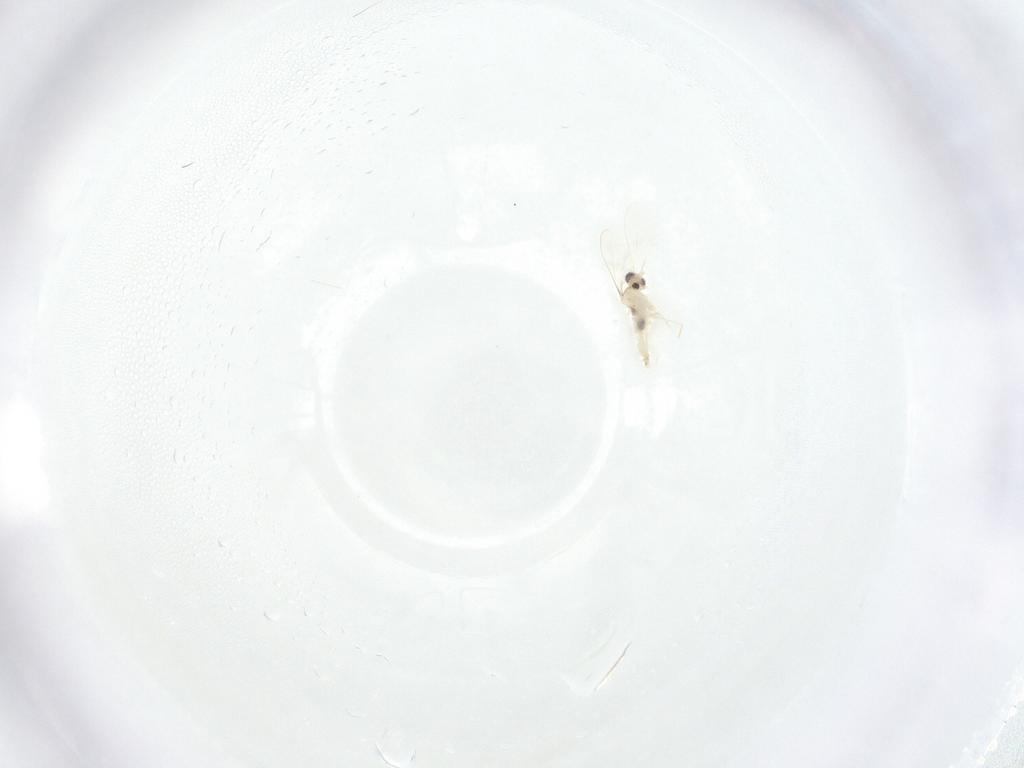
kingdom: Animalia
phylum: Arthropoda
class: Insecta
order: Diptera
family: Cecidomyiidae
